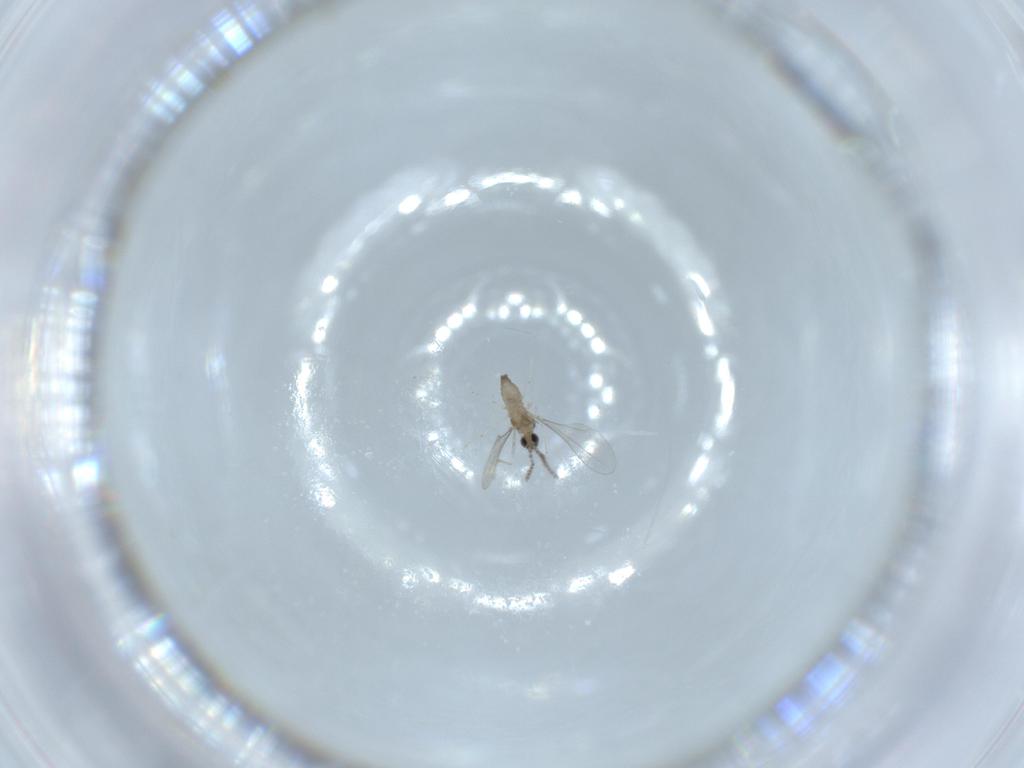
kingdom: Animalia
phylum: Arthropoda
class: Insecta
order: Diptera
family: Cecidomyiidae
